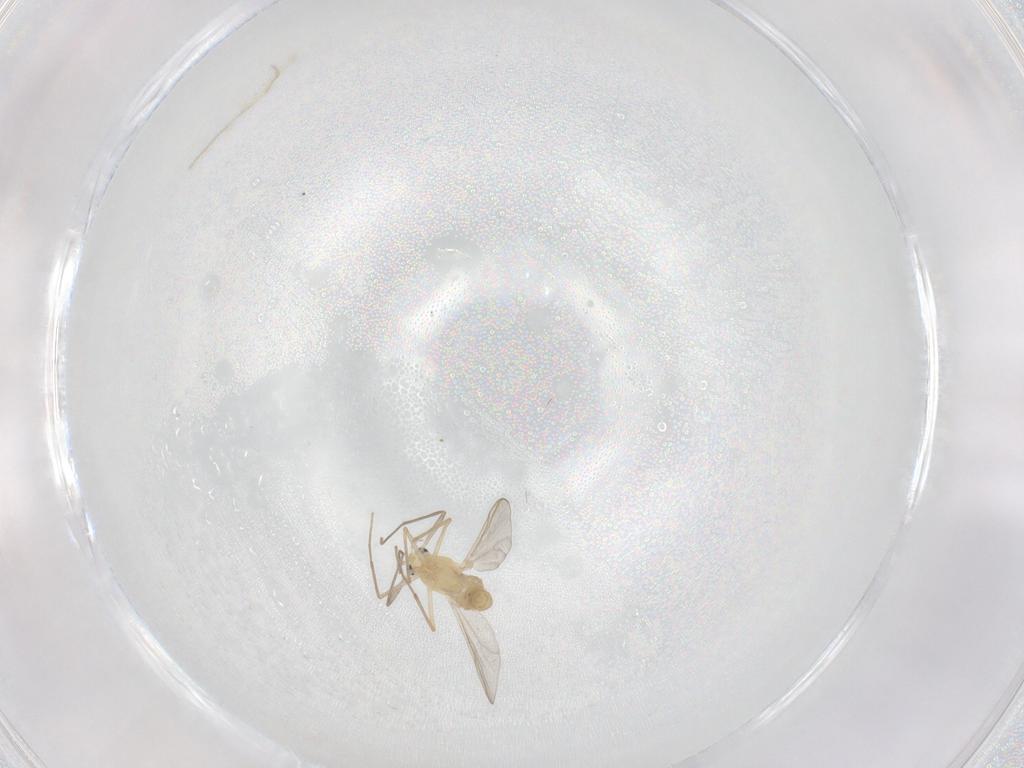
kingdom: Animalia
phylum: Arthropoda
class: Insecta
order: Diptera
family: Chironomidae
